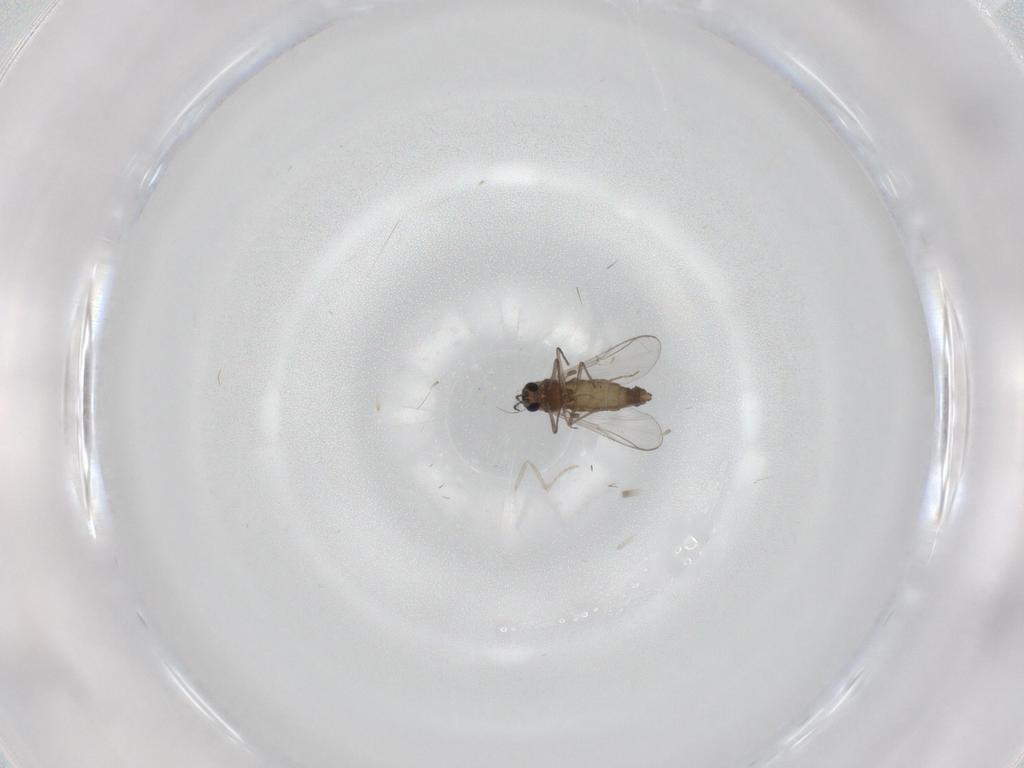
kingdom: Animalia
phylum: Arthropoda
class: Insecta
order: Diptera
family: Chironomidae
